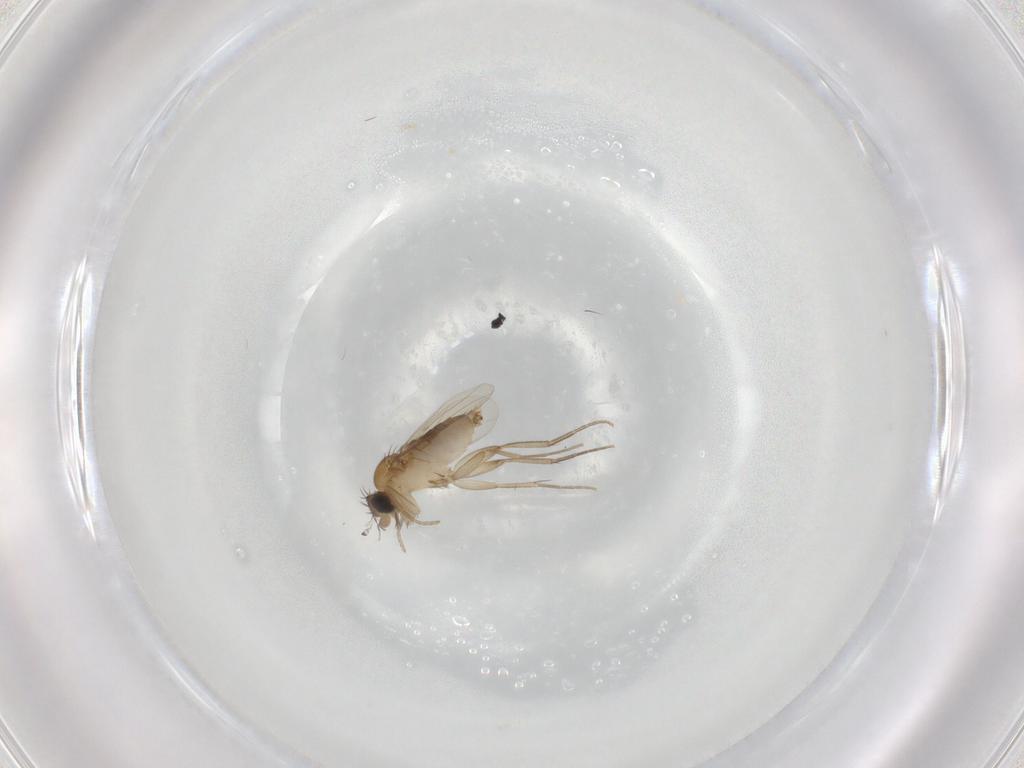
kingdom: Animalia
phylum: Arthropoda
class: Insecta
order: Diptera
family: Phoridae
